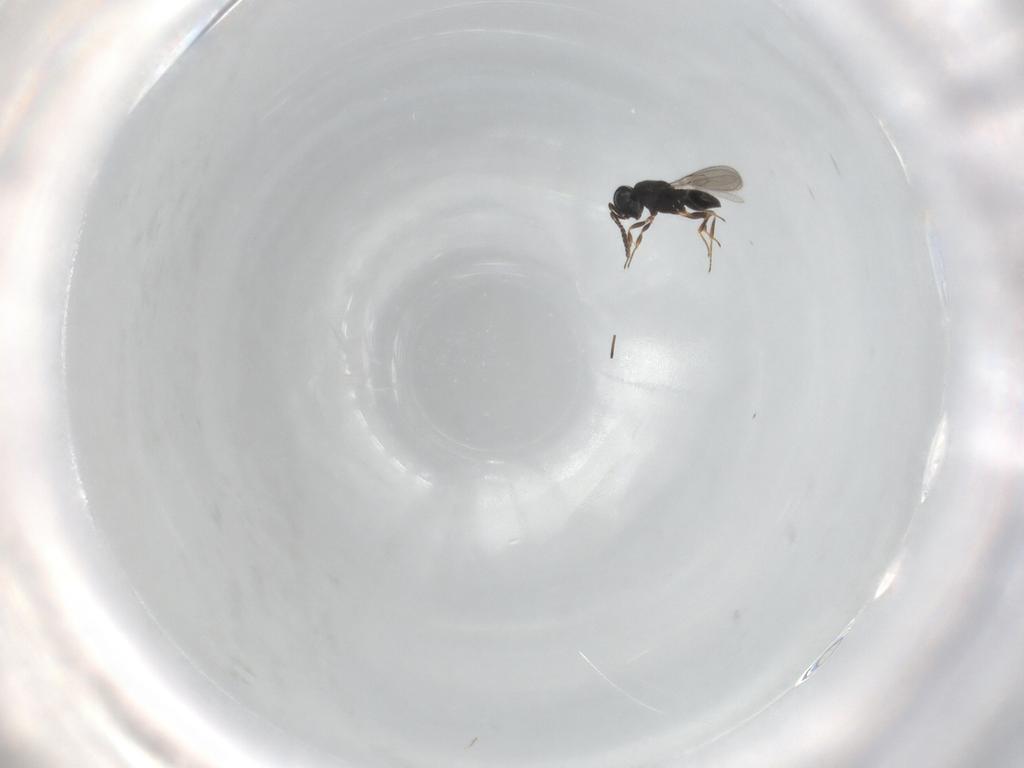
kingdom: Animalia
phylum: Arthropoda
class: Insecta
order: Hymenoptera
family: Scelionidae
